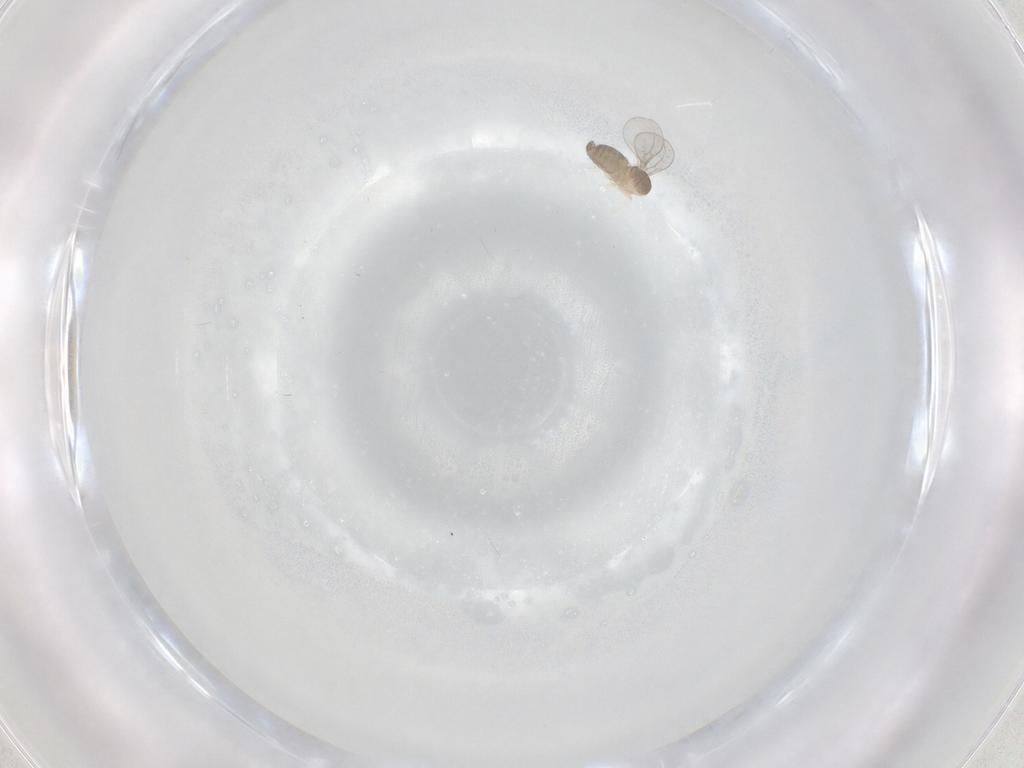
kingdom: Animalia
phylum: Arthropoda
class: Insecta
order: Diptera
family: Cecidomyiidae
